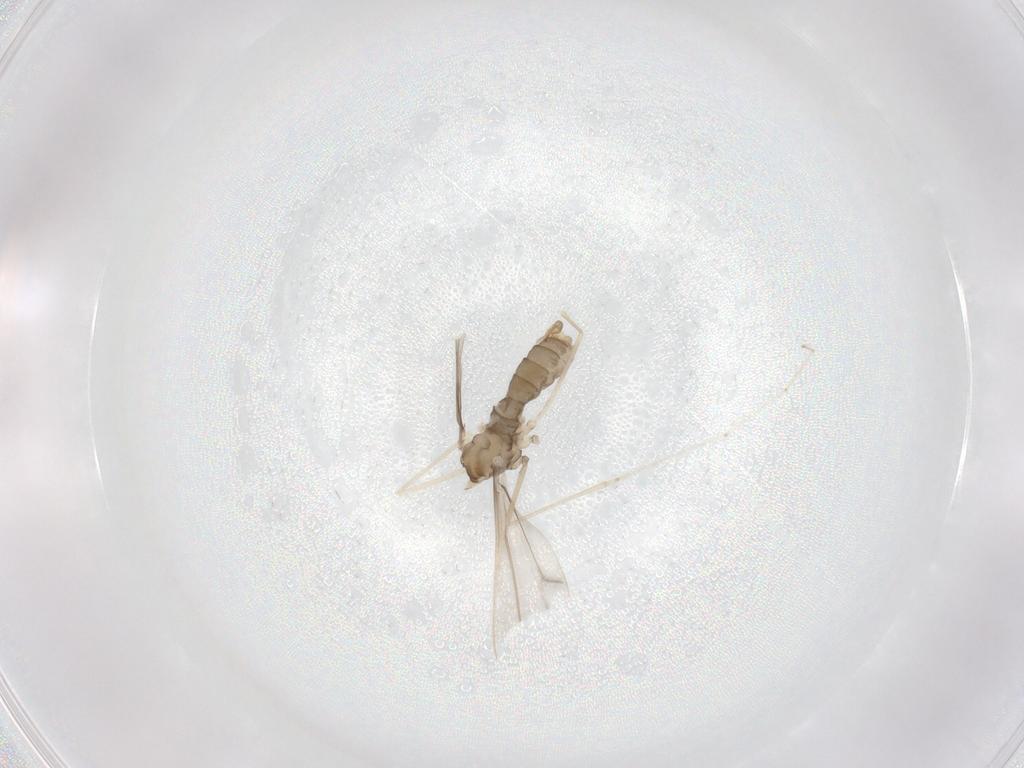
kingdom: Animalia
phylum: Arthropoda
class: Insecta
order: Diptera
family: Cecidomyiidae
